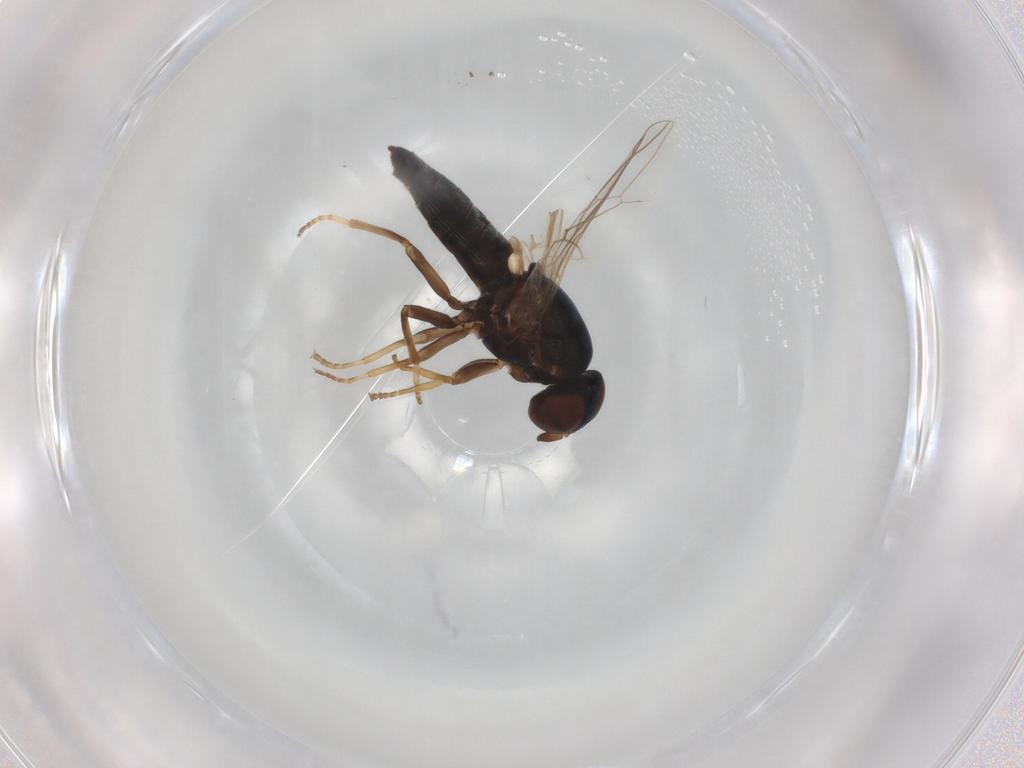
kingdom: Animalia
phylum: Arthropoda
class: Insecta
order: Diptera
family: Scenopinidae
